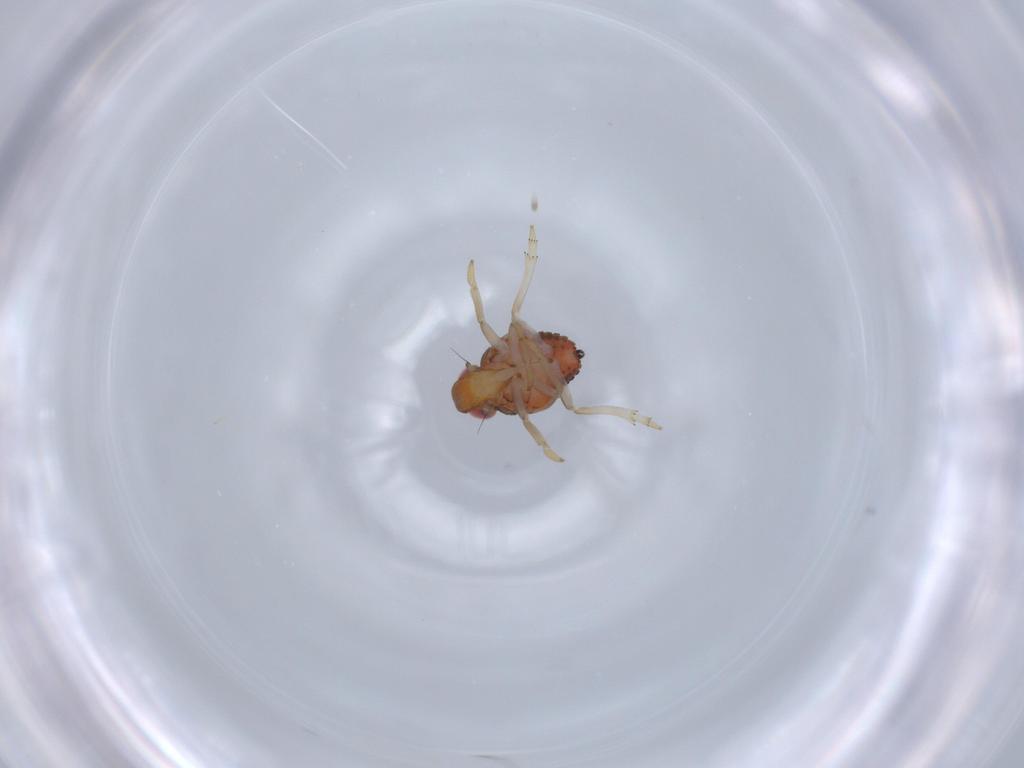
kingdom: Animalia
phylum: Arthropoda
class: Insecta
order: Hemiptera
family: Issidae
